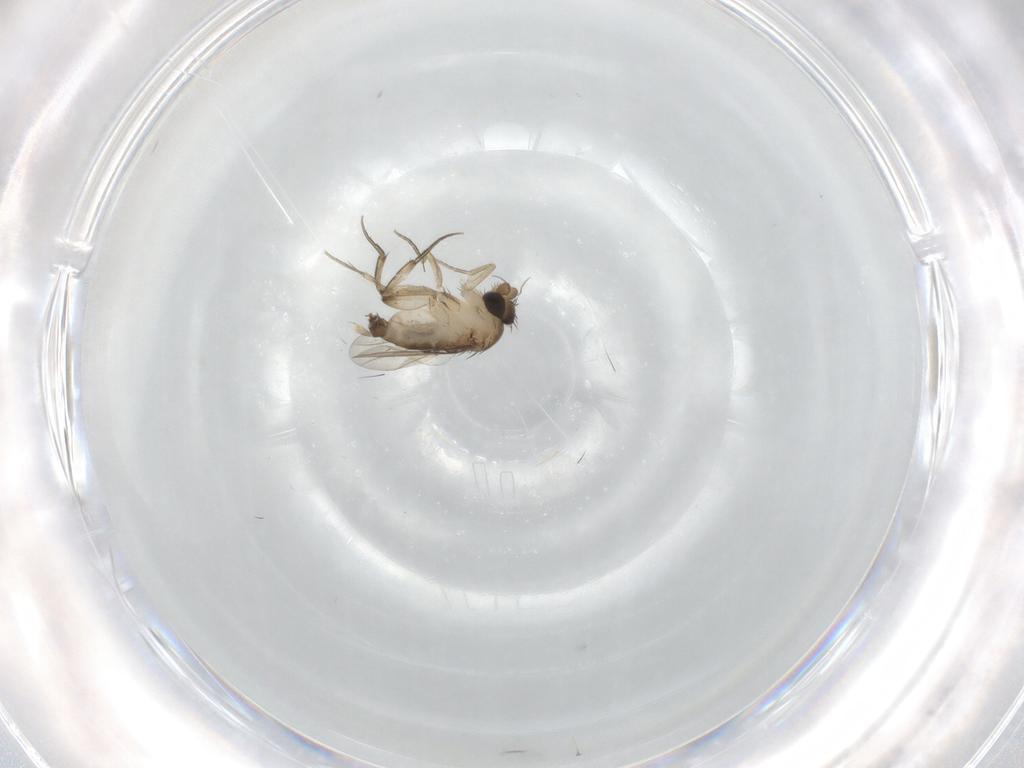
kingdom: Animalia
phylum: Arthropoda
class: Insecta
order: Diptera
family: Phoridae
